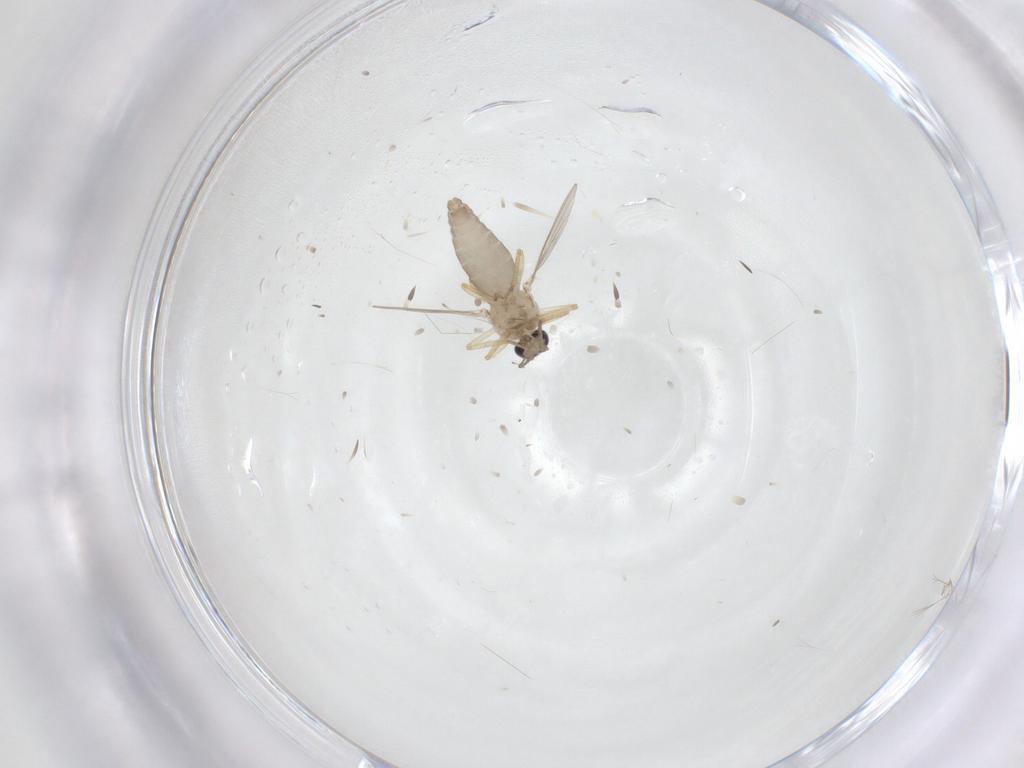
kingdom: Animalia
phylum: Arthropoda
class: Insecta
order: Diptera
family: Ceratopogonidae
